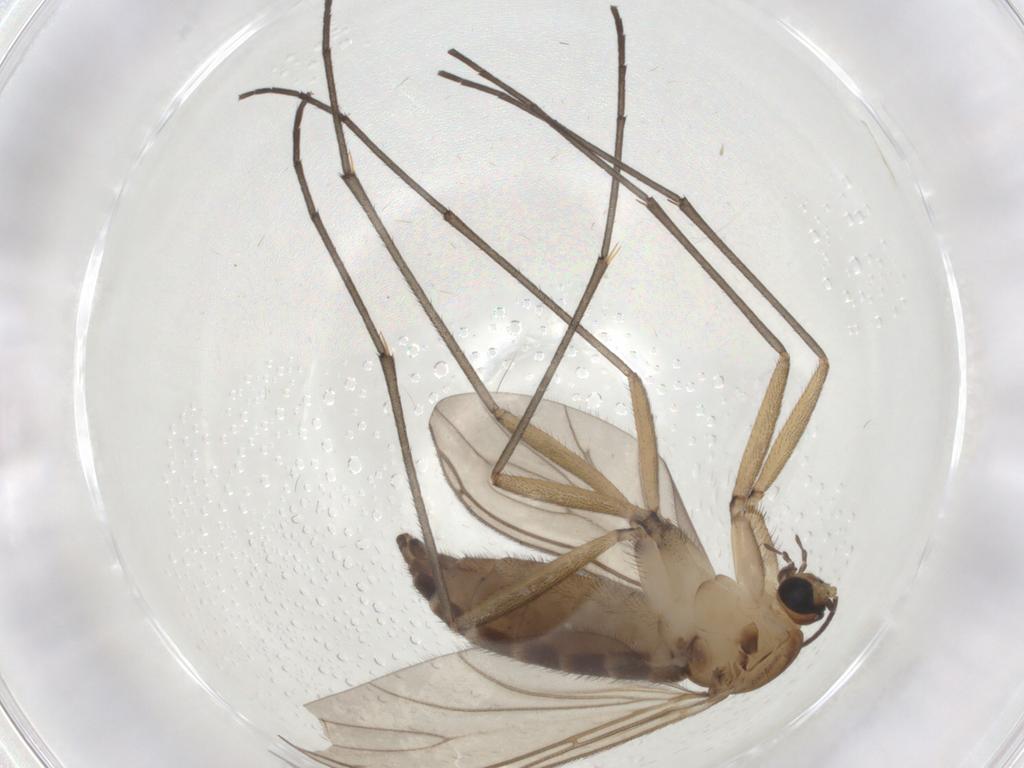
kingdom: Animalia
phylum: Arthropoda
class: Insecta
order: Diptera
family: Sciaridae
